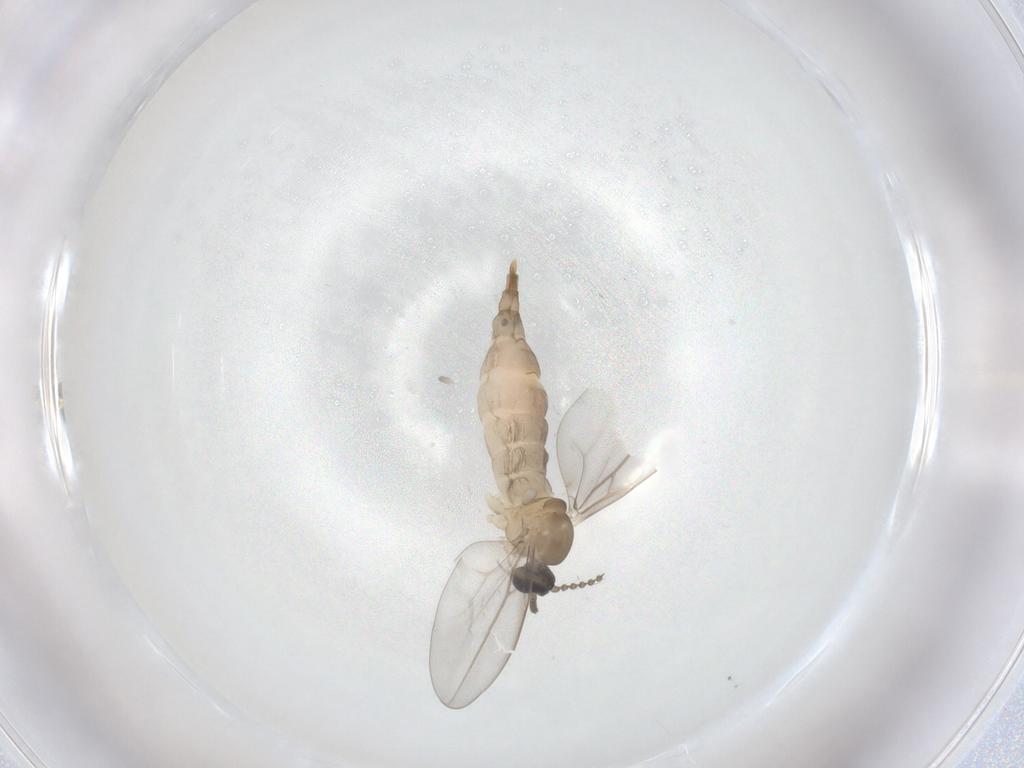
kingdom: Animalia
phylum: Arthropoda
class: Insecta
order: Diptera
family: Cecidomyiidae
